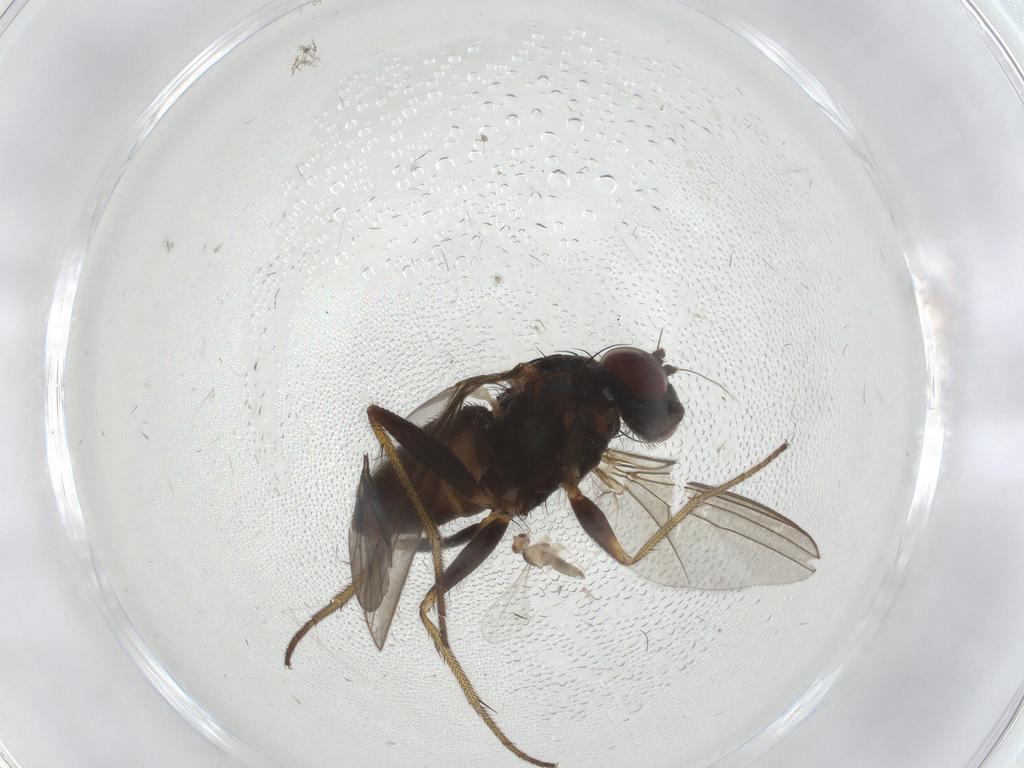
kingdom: Animalia
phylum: Arthropoda
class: Insecta
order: Diptera
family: Cecidomyiidae
